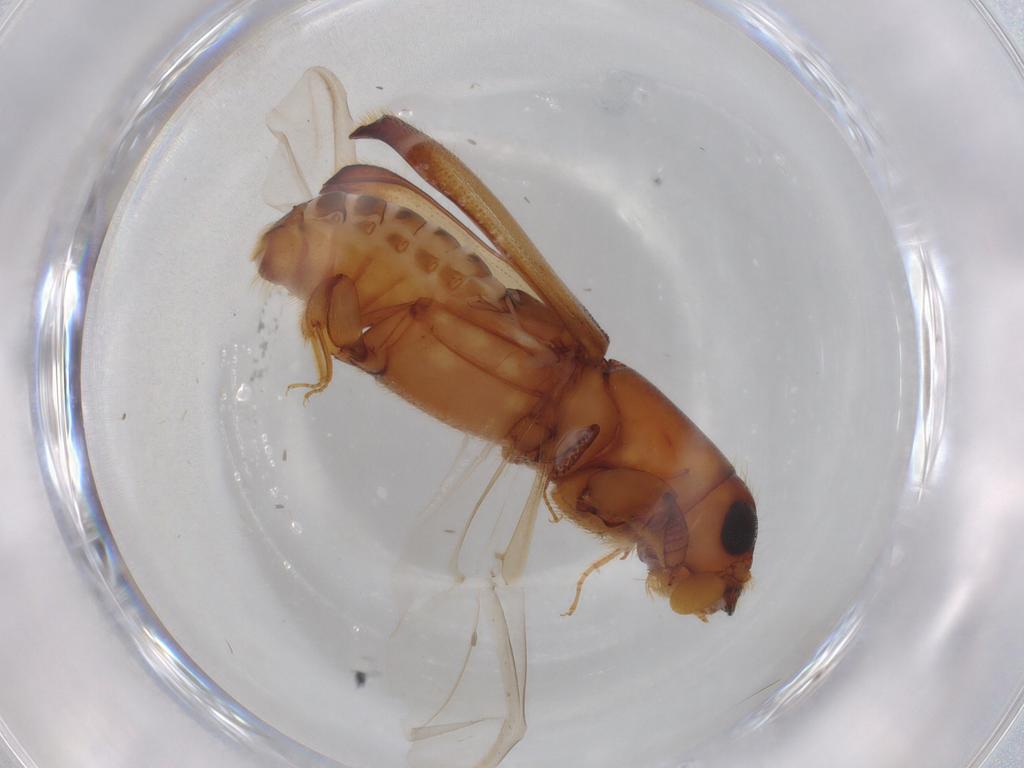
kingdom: Animalia
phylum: Arthropoda
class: Insecta
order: Coleoptera
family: Curculionidae
